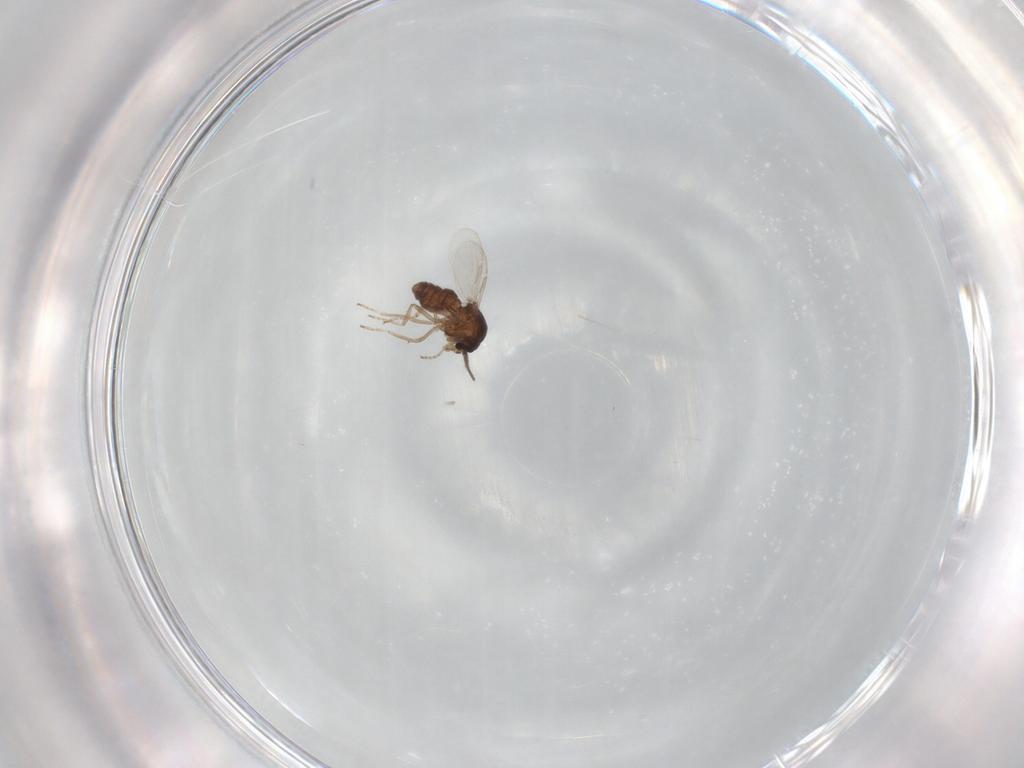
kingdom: Animalia
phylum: Arthropoda
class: Insecta
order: Diptera
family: Ceratopogonidae
